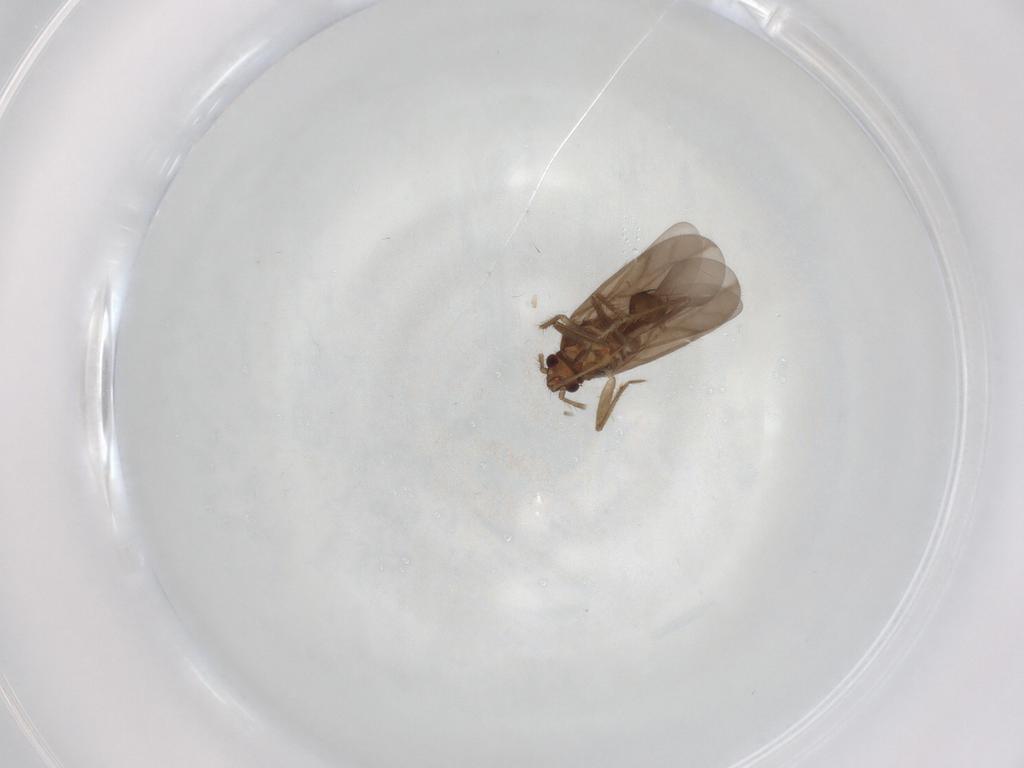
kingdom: Animalia
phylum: Arthropoda
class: Insecta
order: Hemiptera
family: Ceratocombidae
